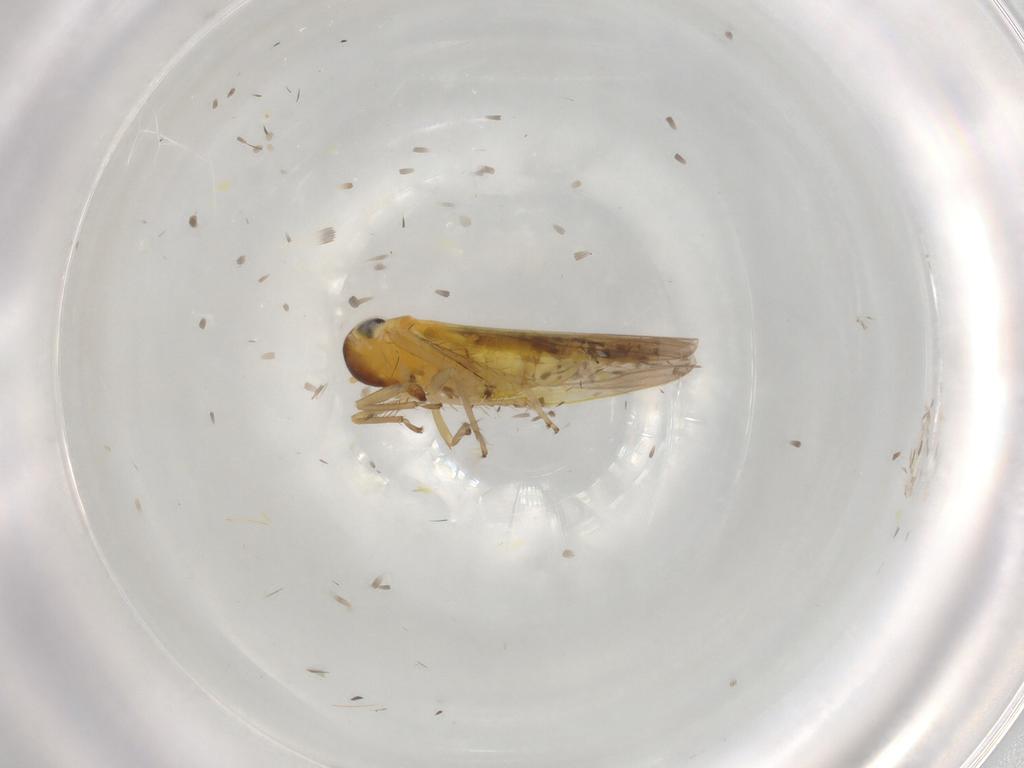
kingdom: Animalia
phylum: Arthropoda
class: Insecta
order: Hemiptera
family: Cicadellidae
